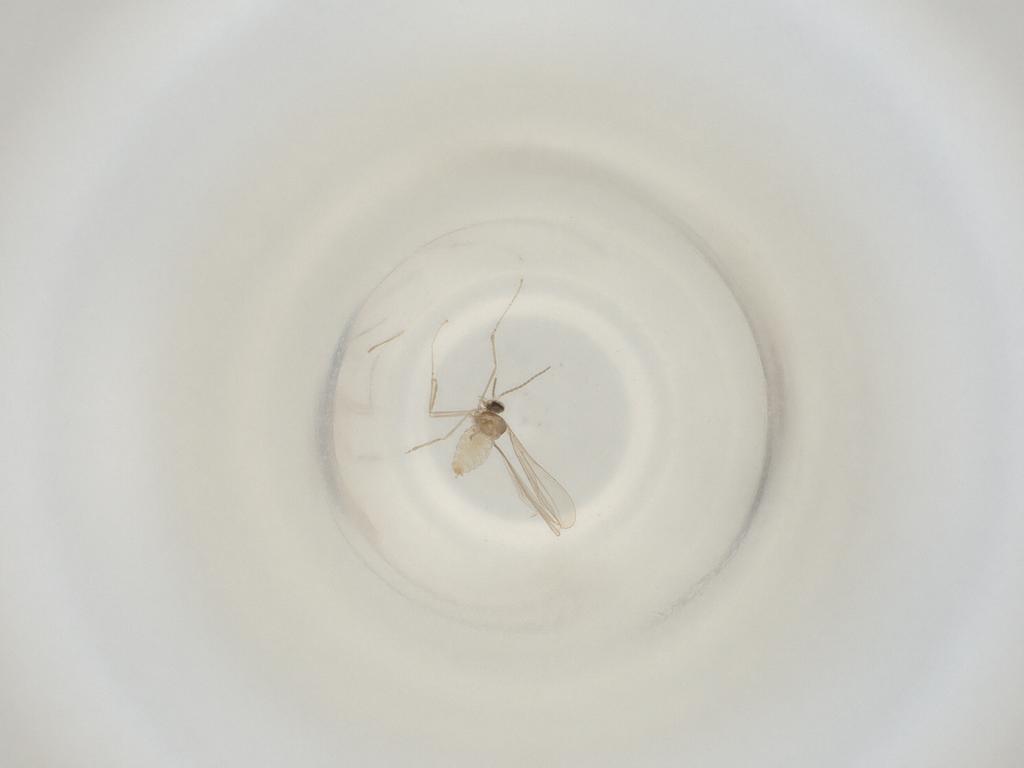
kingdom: Animalia
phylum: Arthropoda
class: Insecta
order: Diptera
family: Cecidomyiidae
